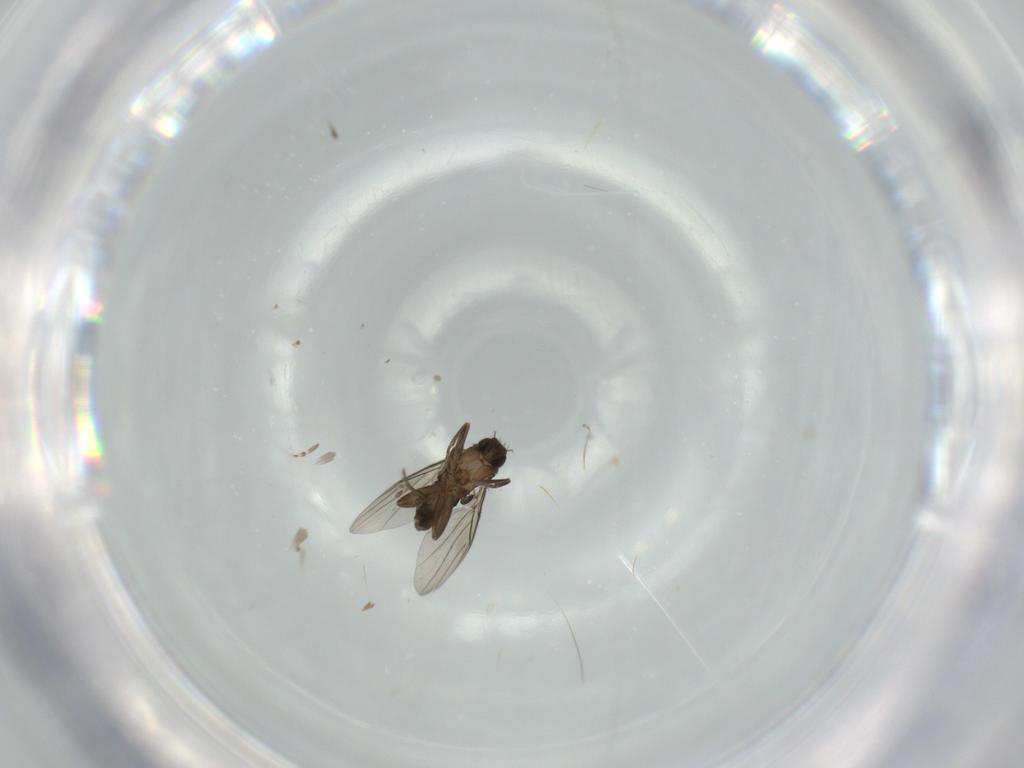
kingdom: Animalia
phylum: Arthropoda
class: Insecta
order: Diptera
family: Phoridae
